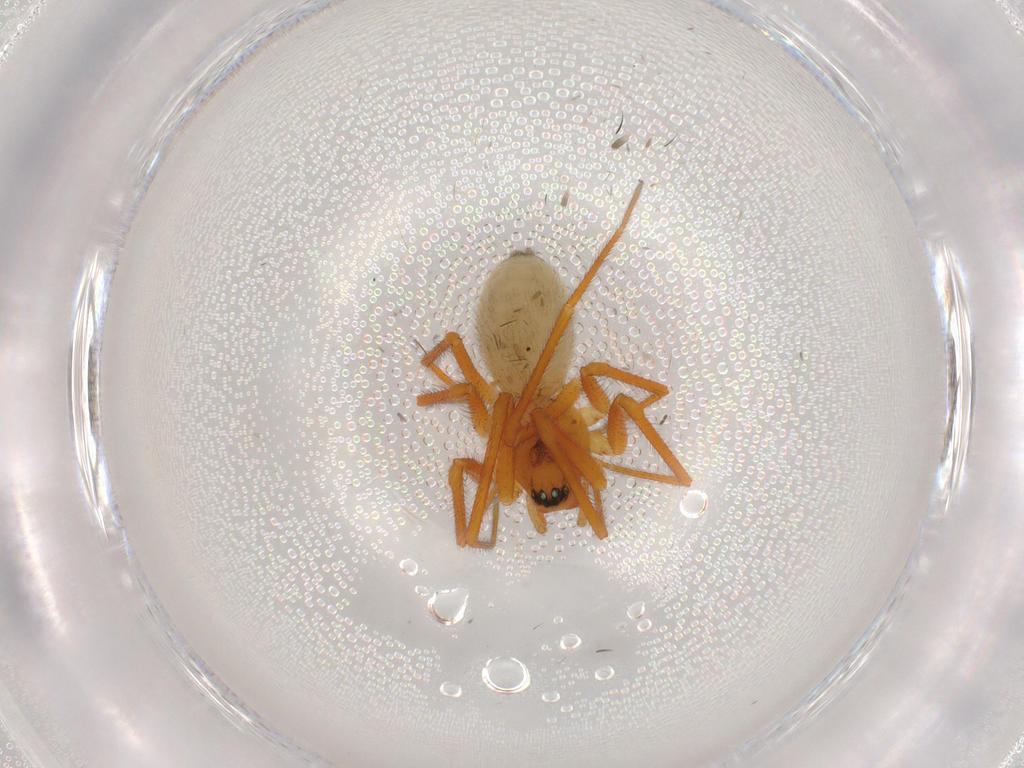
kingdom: Animalia
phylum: Arthropoda
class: Arachnida
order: Araneae
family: Linyphiidae
